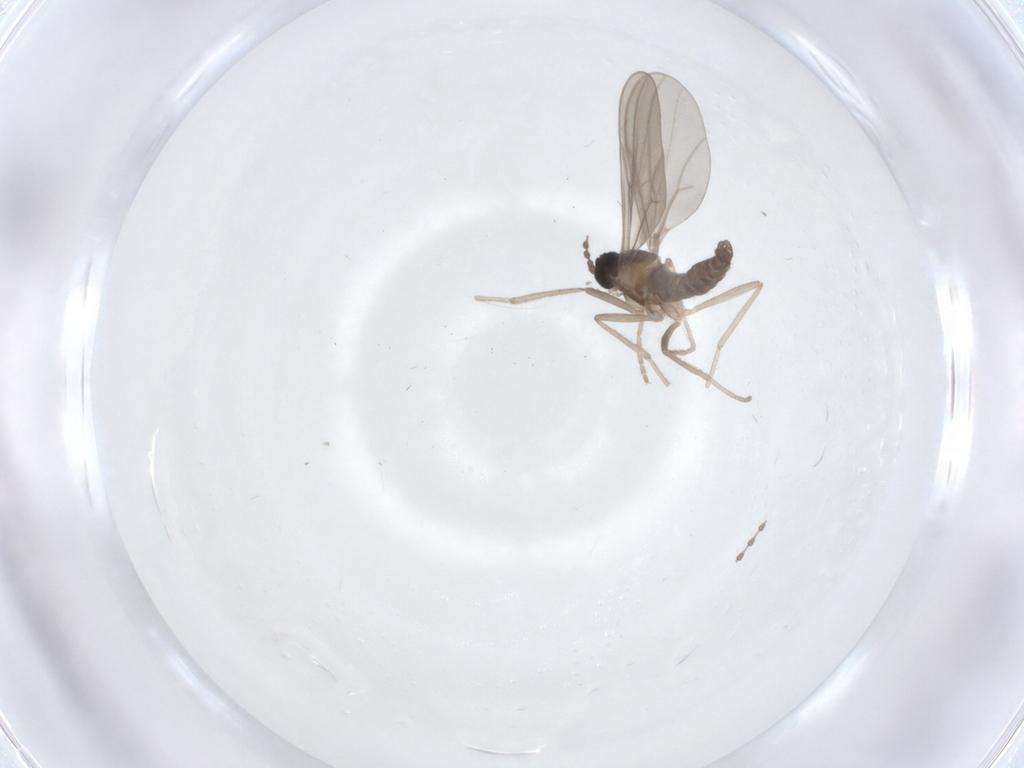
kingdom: Animalia
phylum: Arthropoda
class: Insecta
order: Diptera
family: Cecidomyiidae
